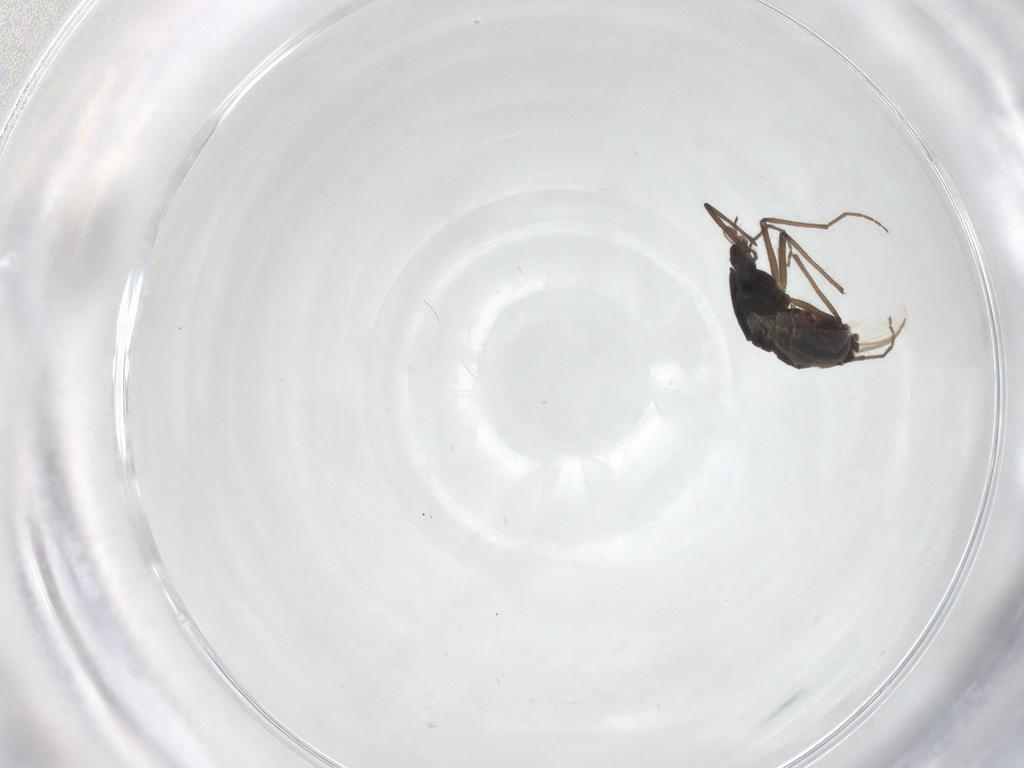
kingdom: Animalia
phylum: Arthropoda
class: Insecta
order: Diptera
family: Chironomidae
